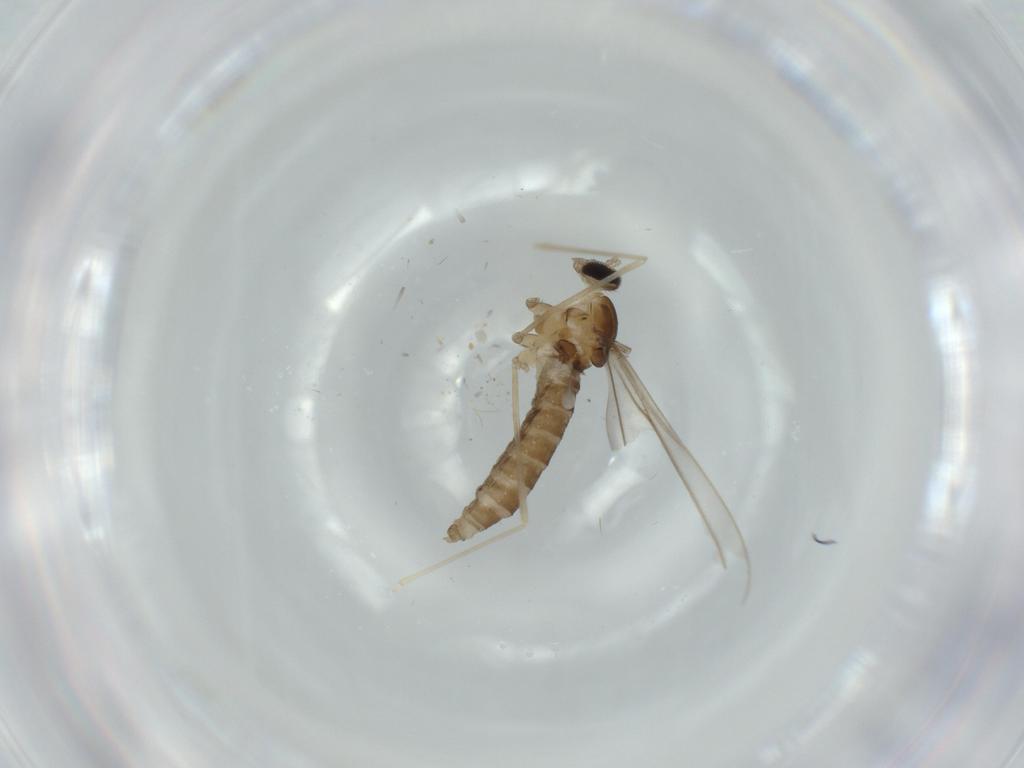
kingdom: Animalia
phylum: Arthropoda
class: Insecta
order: Diptera
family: Cecidomyiidae
